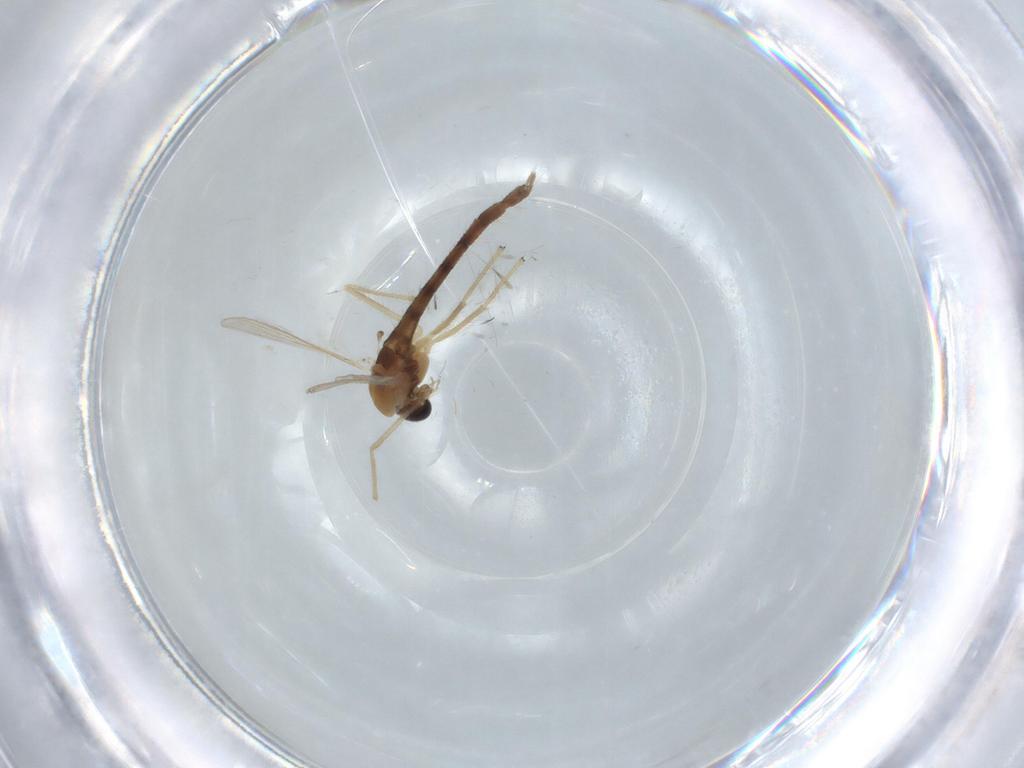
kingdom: Animalia
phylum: Arthropoda
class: Insecta
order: Diptera
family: Chironomidae
